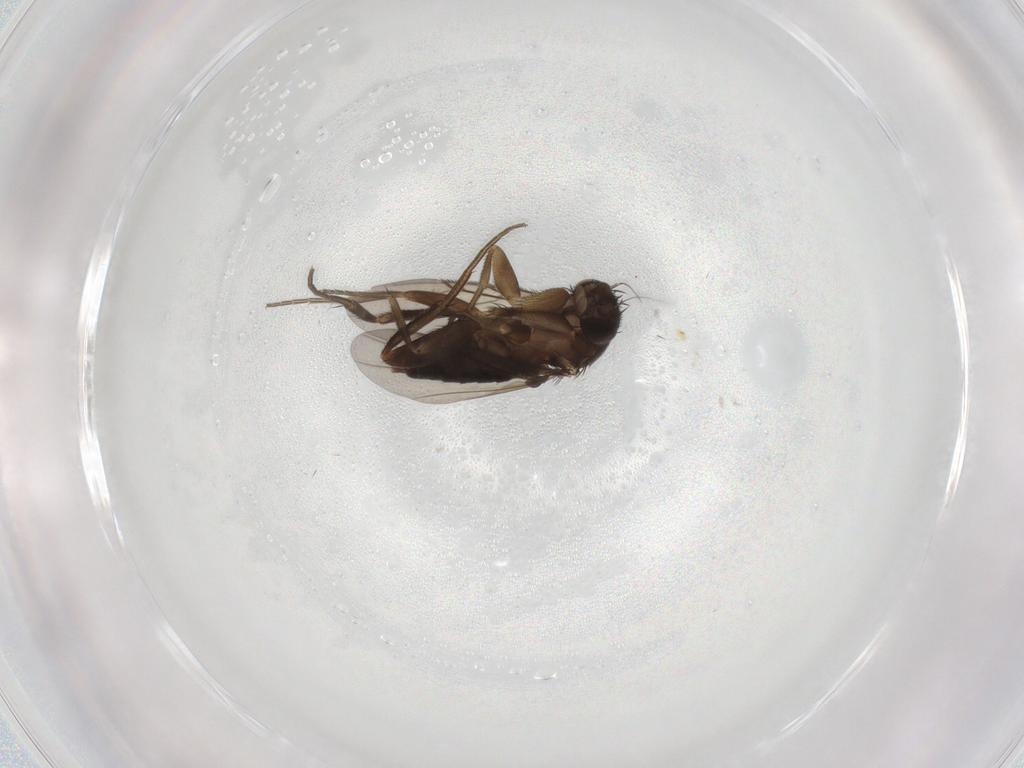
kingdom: Animalia
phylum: Arthropoda
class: Insecta
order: Diptera
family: Phoridae
